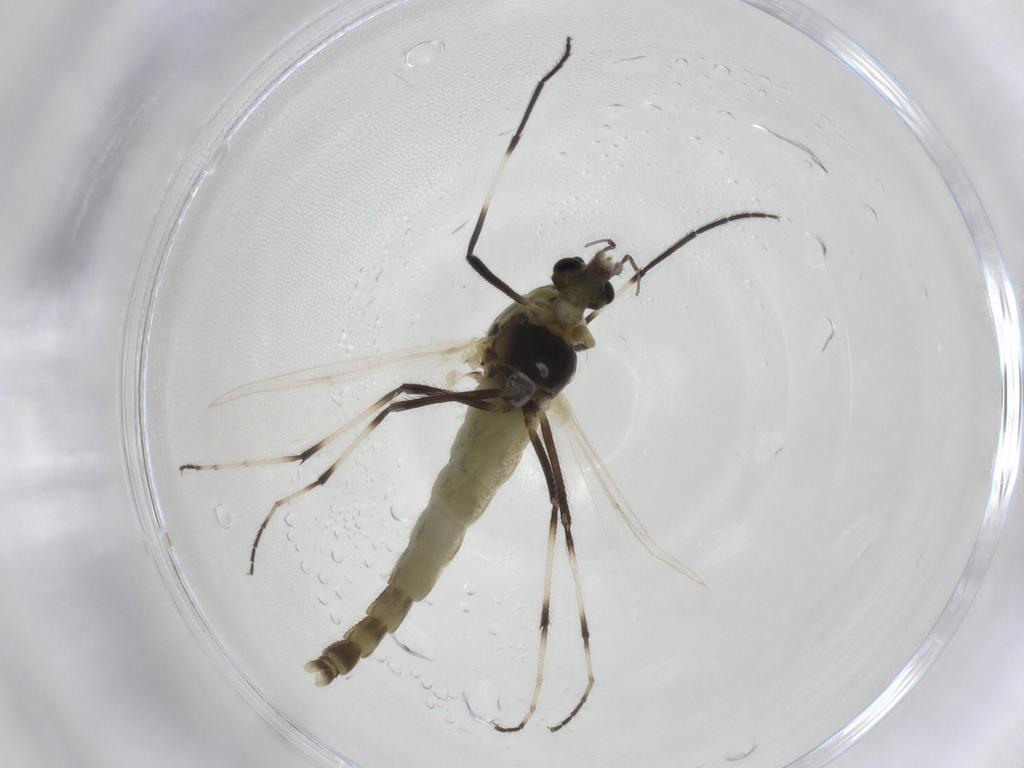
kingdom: Animalia
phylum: Arthropoda
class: Insecta
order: Diptera
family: Chironomidae
